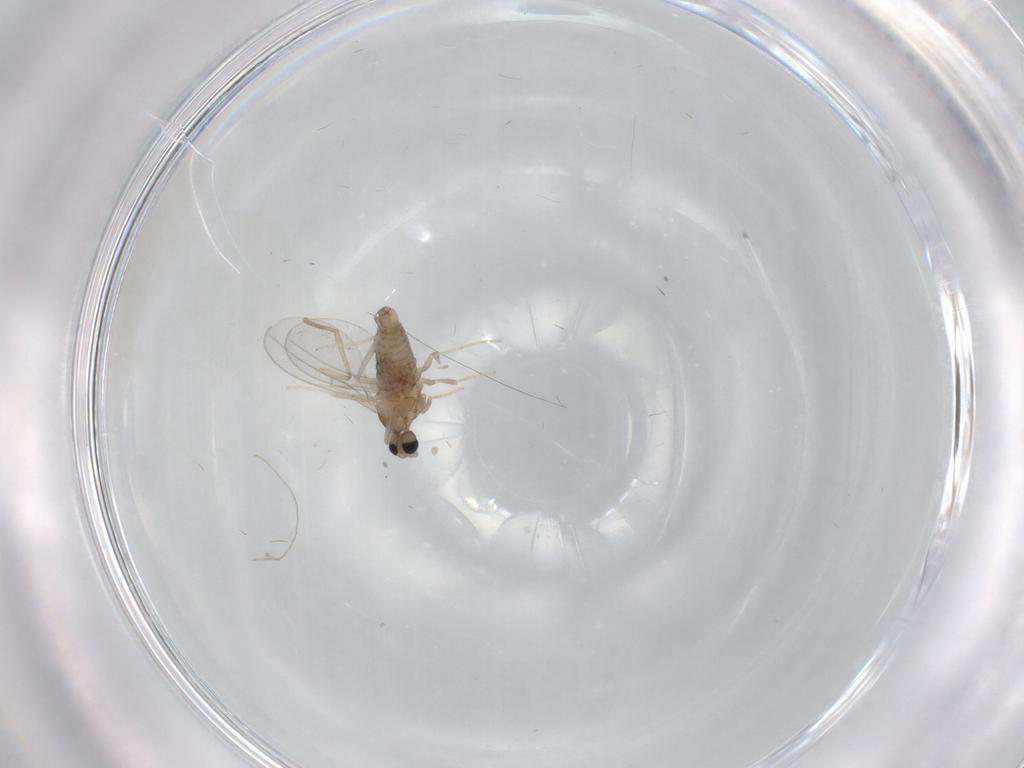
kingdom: Animalia
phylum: Arthropoda
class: Insecta
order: Diptera
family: Cecidomyiidae
